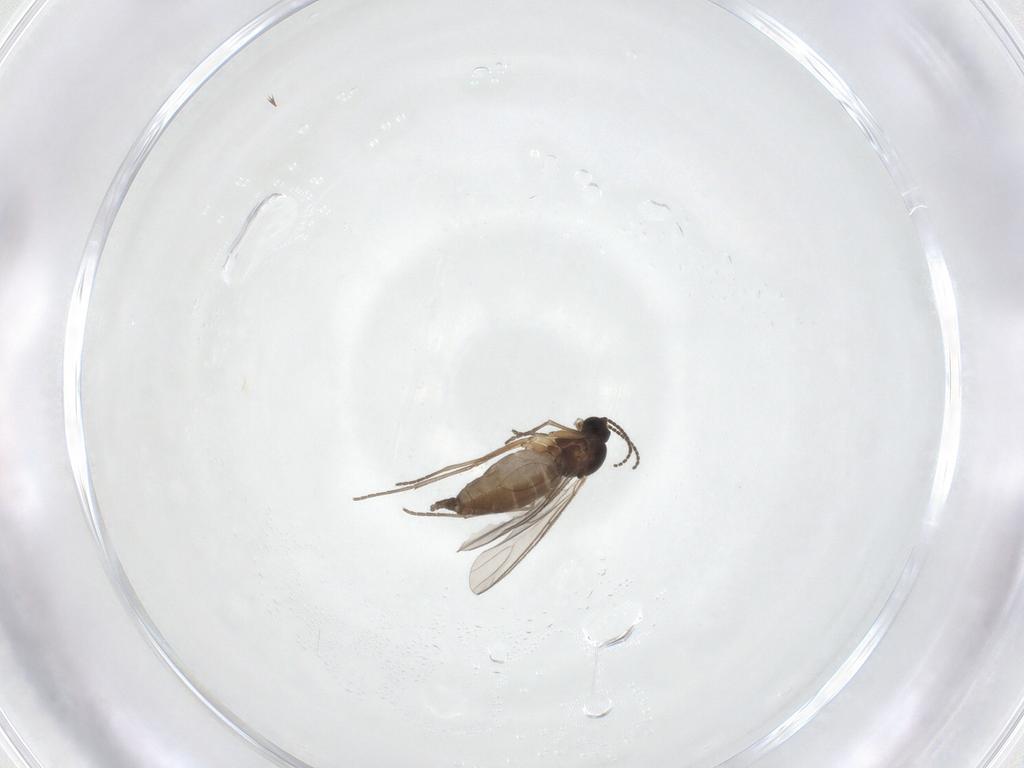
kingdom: Animalia
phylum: Arthropoda
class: Insecta
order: Diptera
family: Sciaridae
